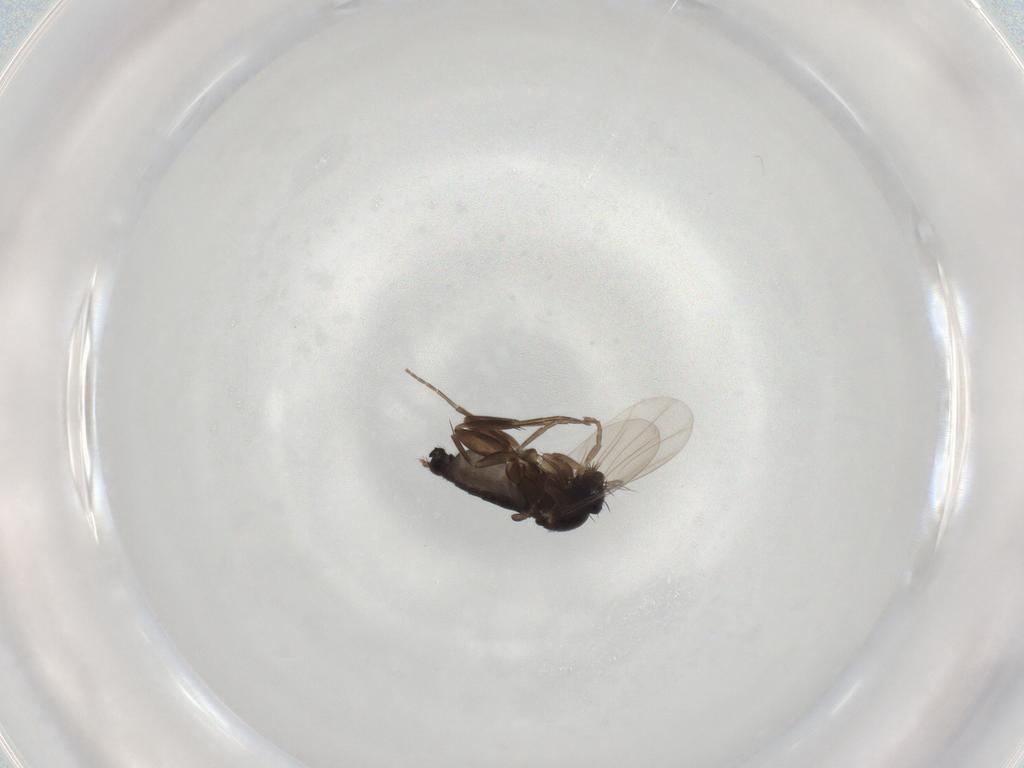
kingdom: Animalia
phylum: Arthropoda
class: Insecta
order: Diptera
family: Phoridae
